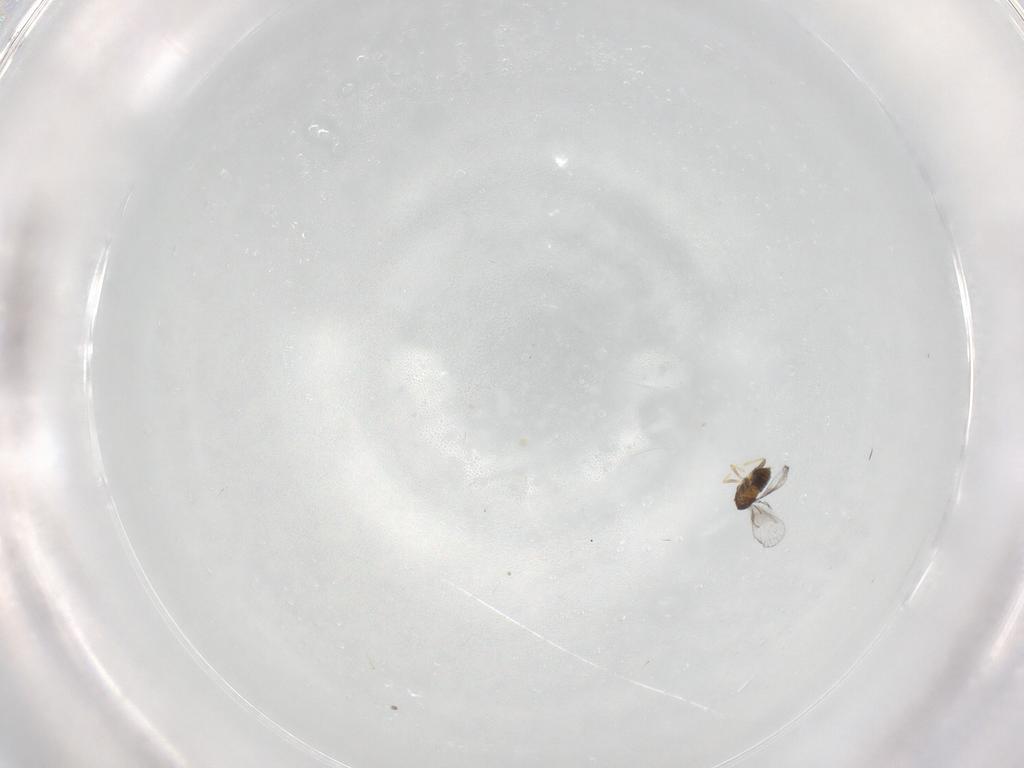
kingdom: Animalia
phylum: Arthropoda
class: Insecta
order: Hymenoptera
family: Trichogrammatidae
